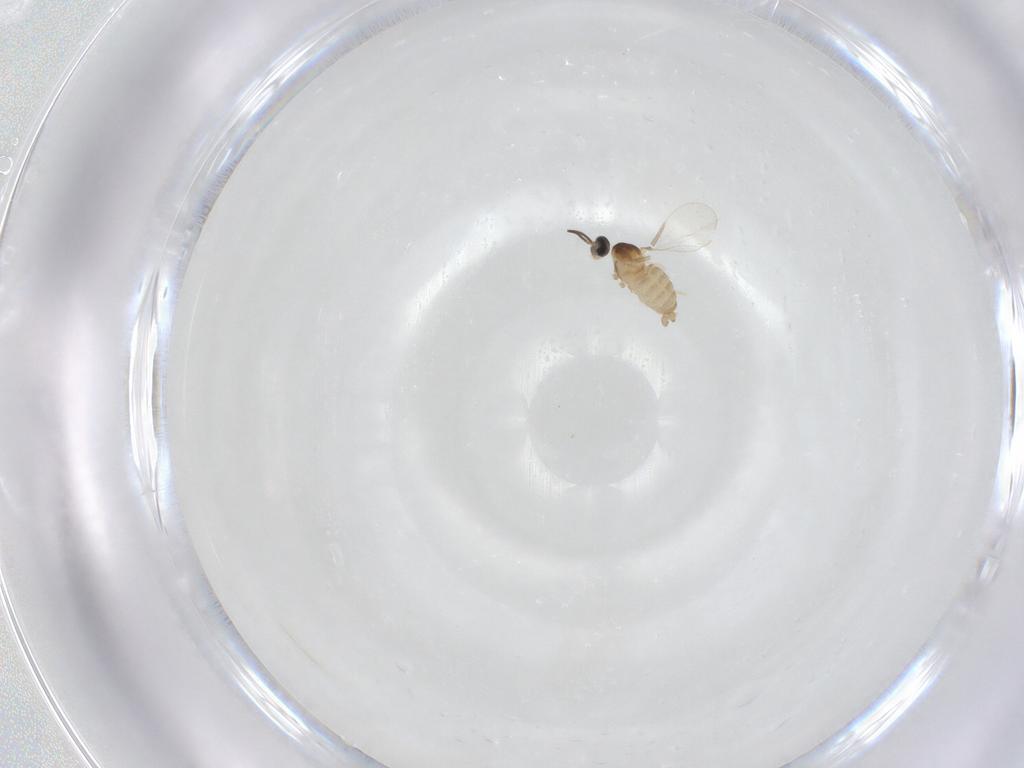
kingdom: Animalia
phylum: Arthropoda
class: Insecta
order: Diptera
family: Cecidomyiidae
